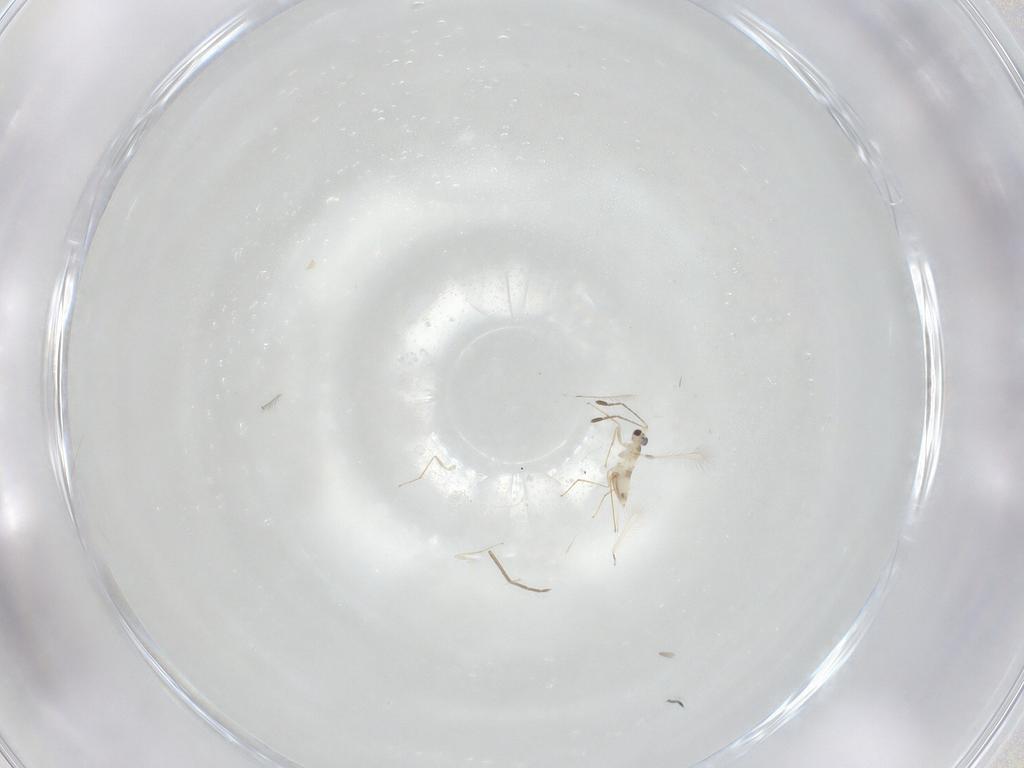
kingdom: Animalia
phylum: Arthropoda
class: Insecta
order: Hymenoptera
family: Mymaridae
